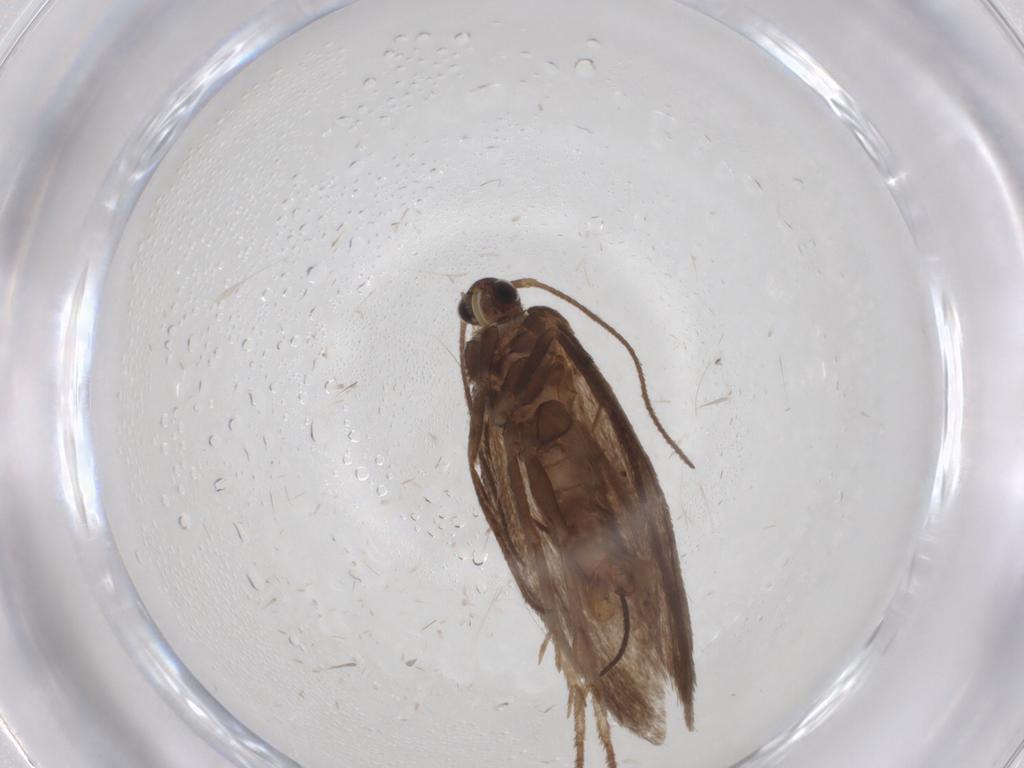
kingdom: Animalia
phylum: Arthropoda
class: Insecta
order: Lepidoptera
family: Limacodidae
